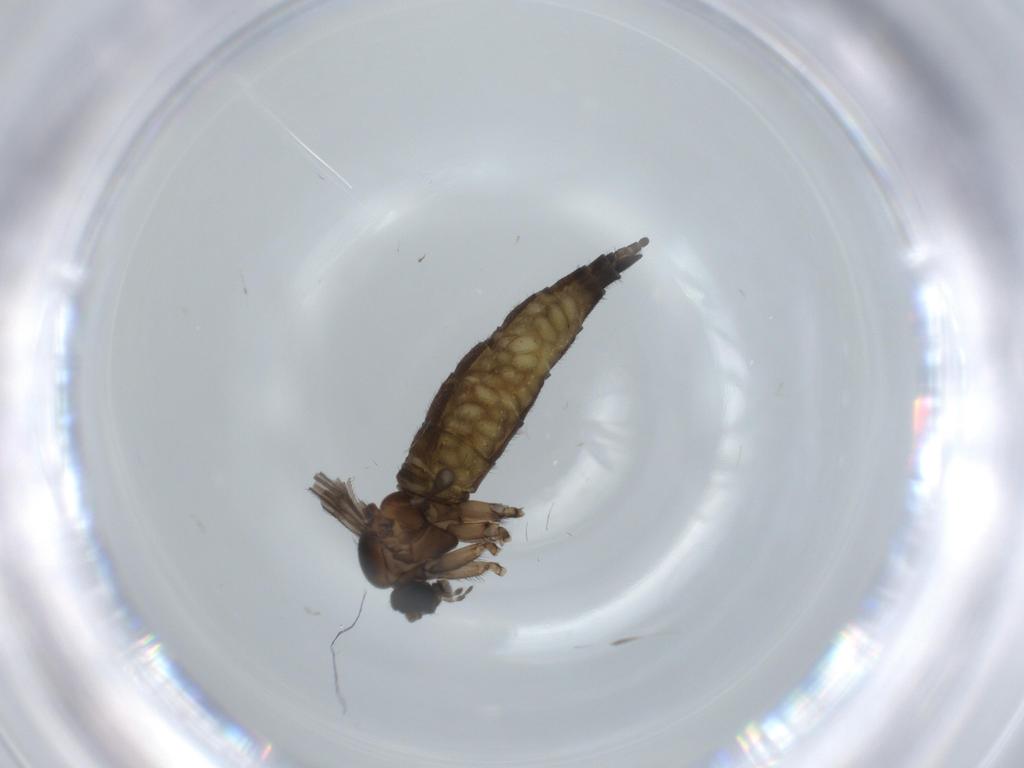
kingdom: Animalia
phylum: Arthropoda
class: Insecta
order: Diptera
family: Sciaridae
